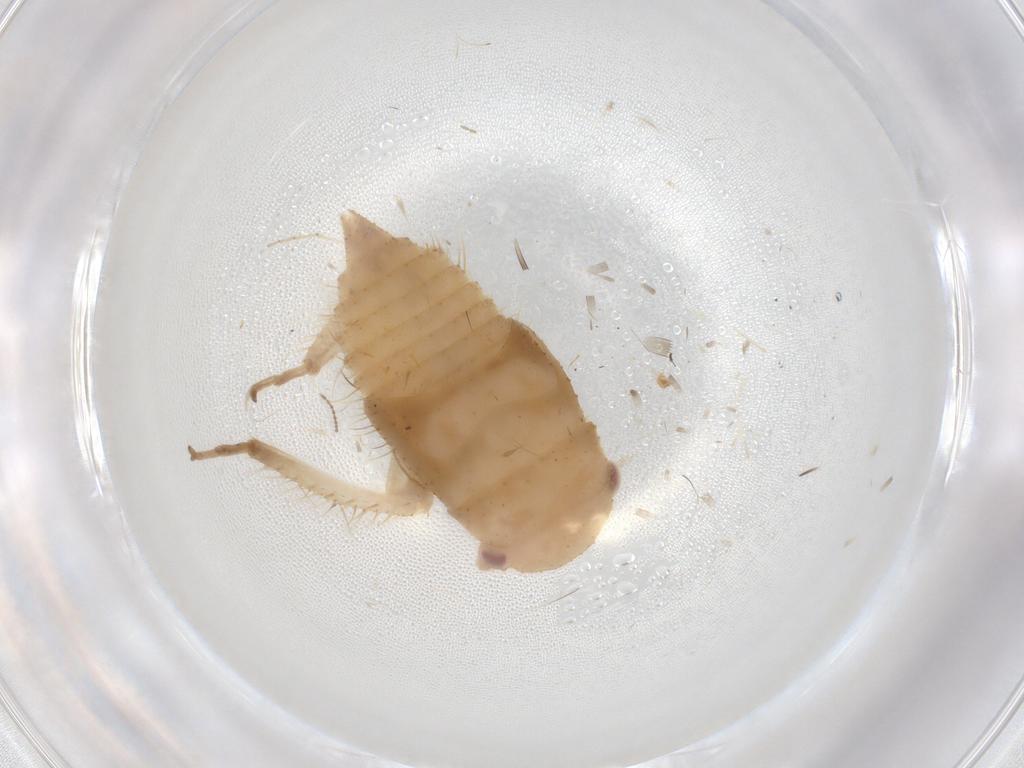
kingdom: Animalia
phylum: Arthropoda
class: Insecta
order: Hemiptera
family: Cicadellidae
